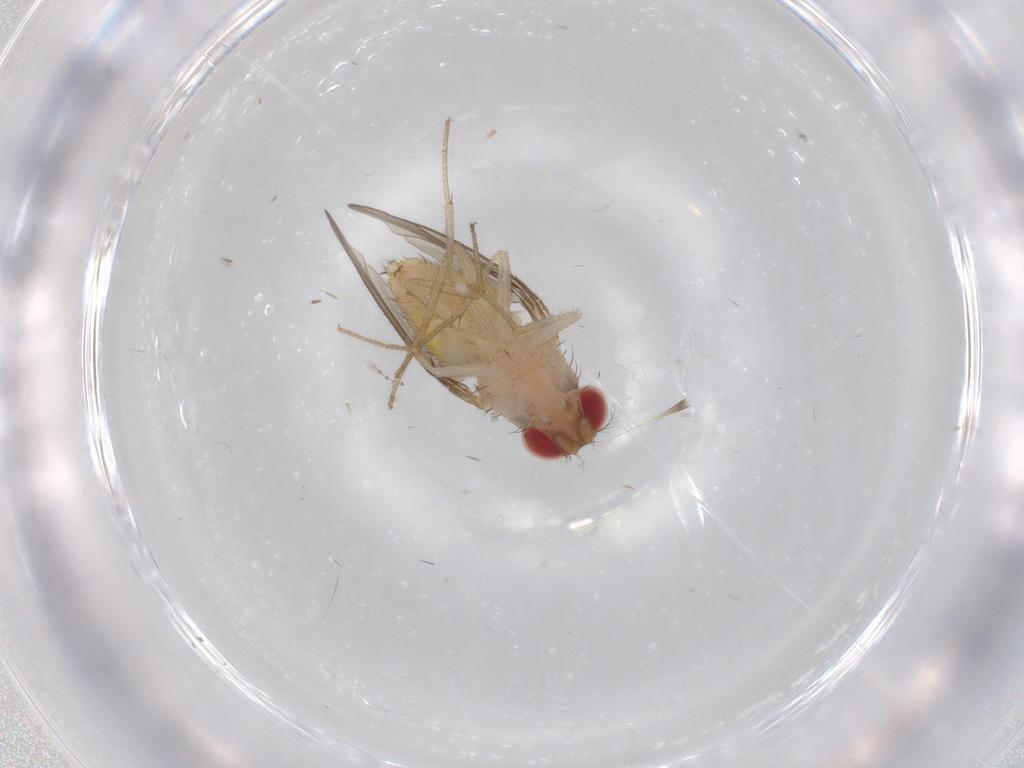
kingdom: Animalia
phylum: Arthropoda
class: Insecta
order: Diptera
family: Drosophilidae
